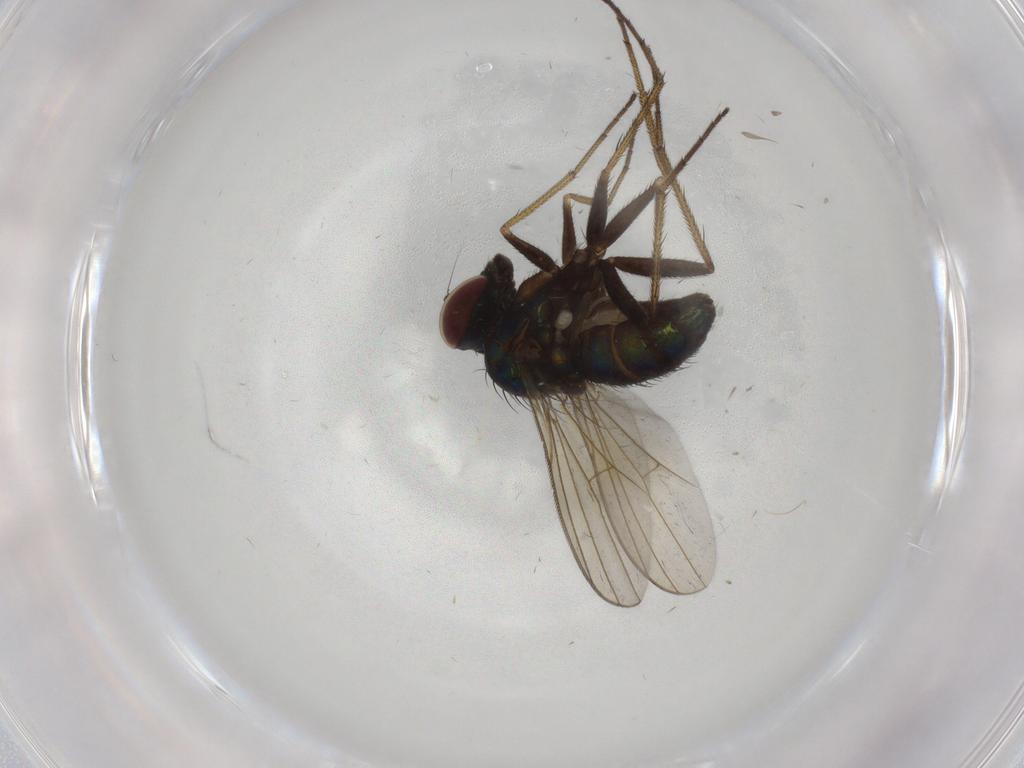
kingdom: Animalia
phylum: Arthropoda
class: Insecta
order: Diptera
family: Dolichopodidae
